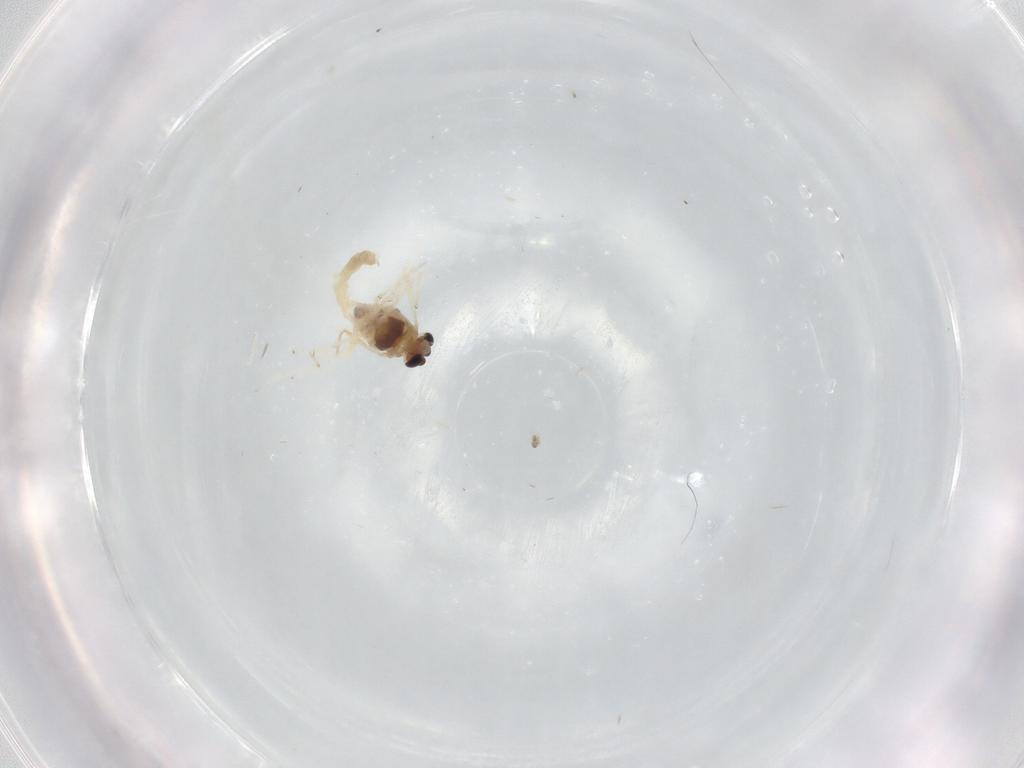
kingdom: Animalia
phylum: Arthropoda
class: Insecta
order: Diptera
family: Chironomidae
